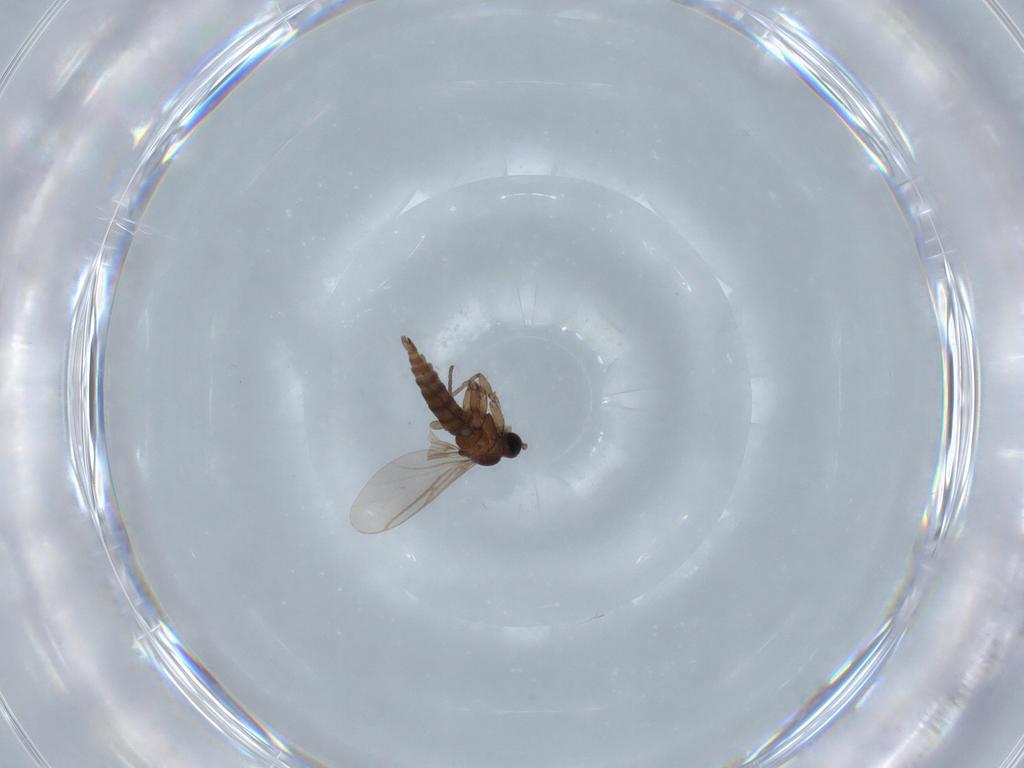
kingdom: Animalia
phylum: Arthropoda
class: Insecta
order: Diptera
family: Sciaridae
